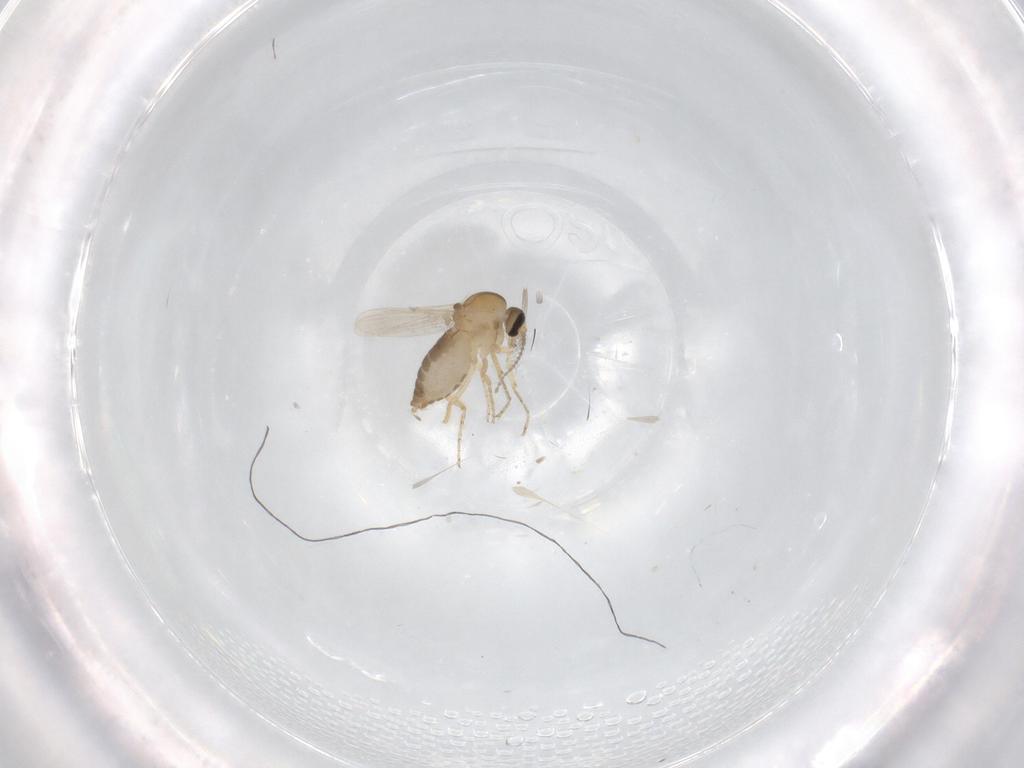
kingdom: Animalia
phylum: Arthropoda
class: Insecta
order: Diptera
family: Ceratopogonidae
